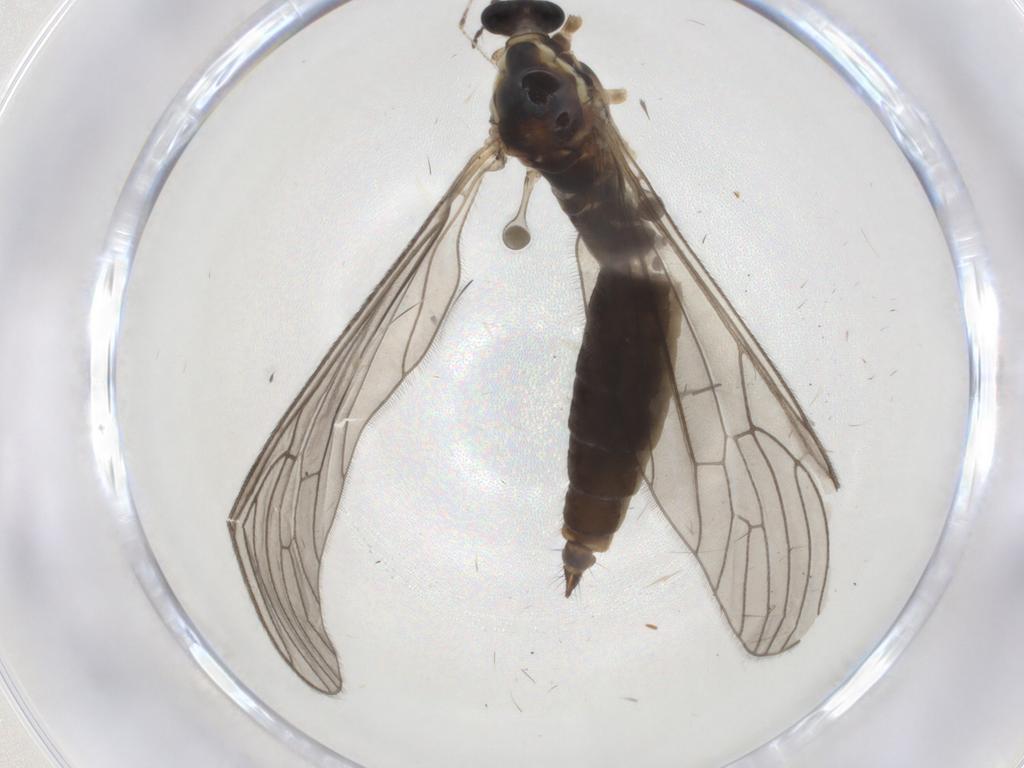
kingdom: Animalia
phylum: Arthropoda
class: Insecta
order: Diptera
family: Limoniidae
